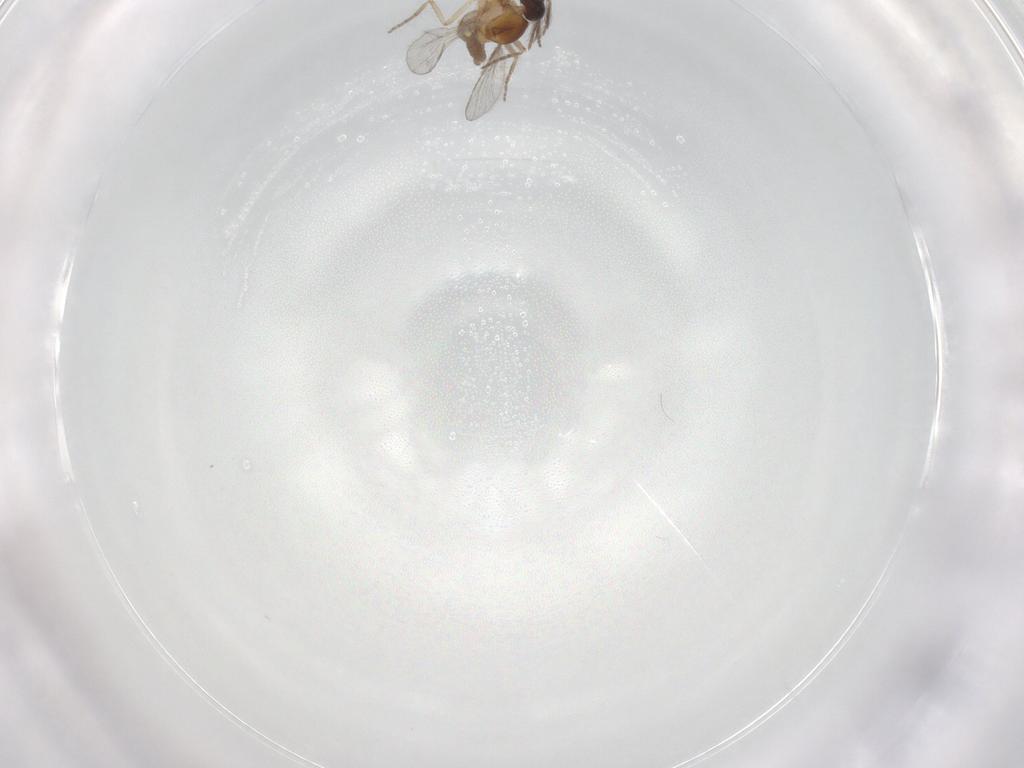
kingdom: Animalia
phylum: Arthropoda
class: Insecta
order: Diptera
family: Ceratopogonidae
